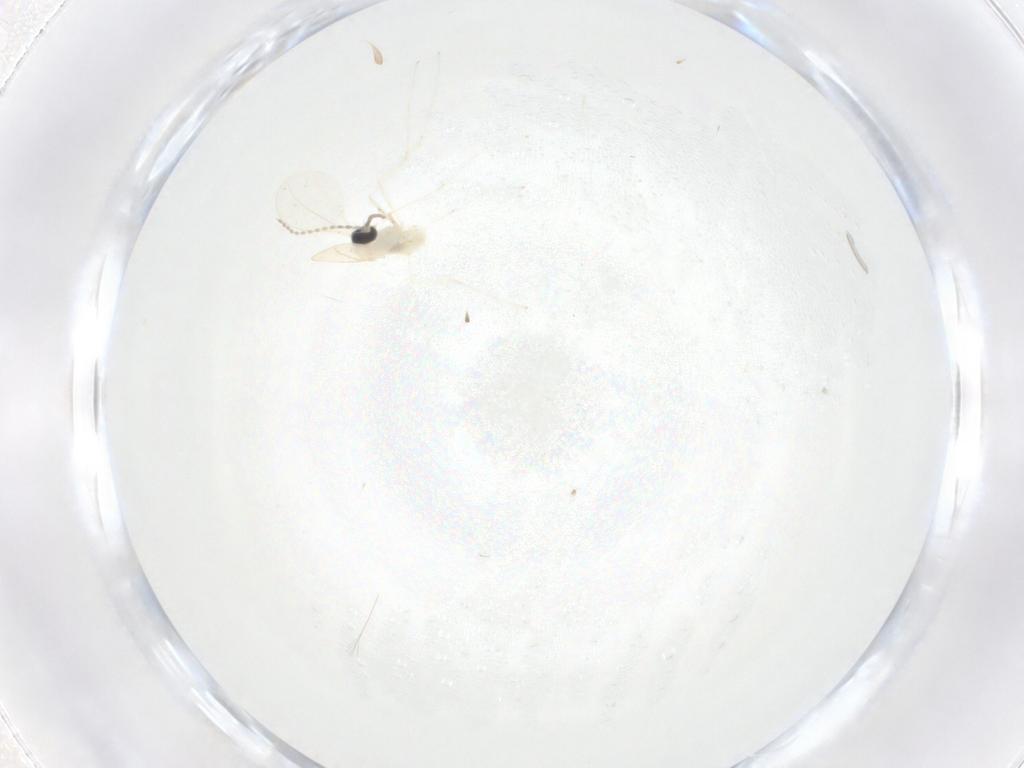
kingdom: Animalia
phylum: Arthropoda
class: Insecta
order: Diptera
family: Cecidomyiidae
